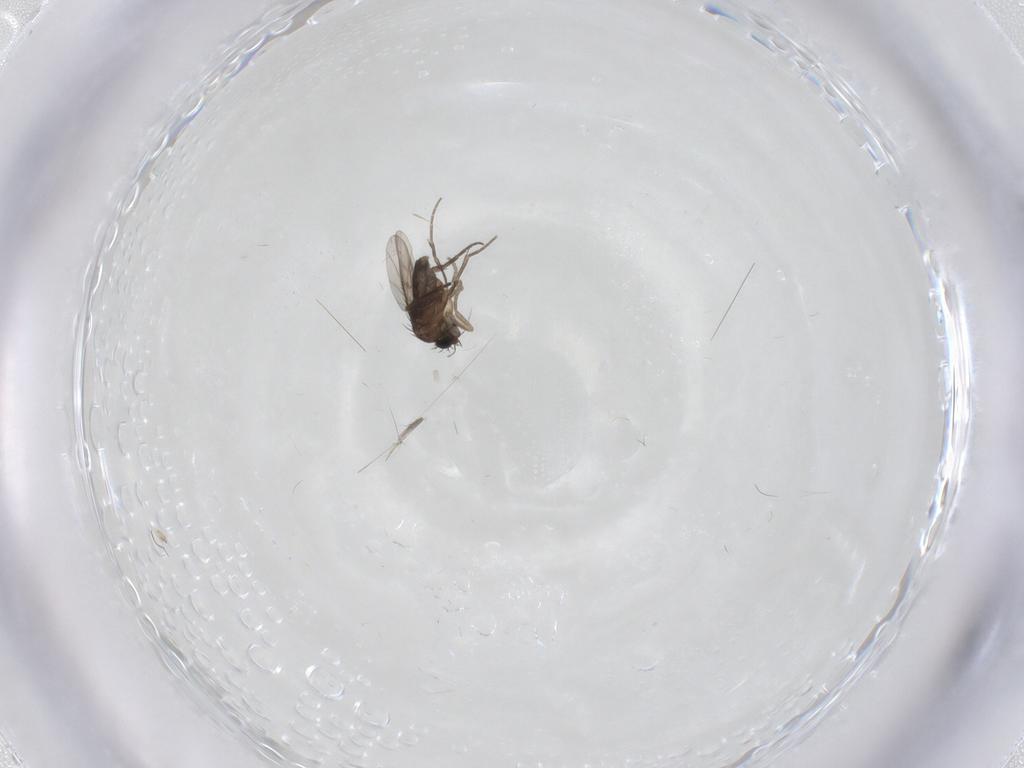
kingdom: Animalia
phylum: Arthropoda
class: Insecta
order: Diptera
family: Phoridae
